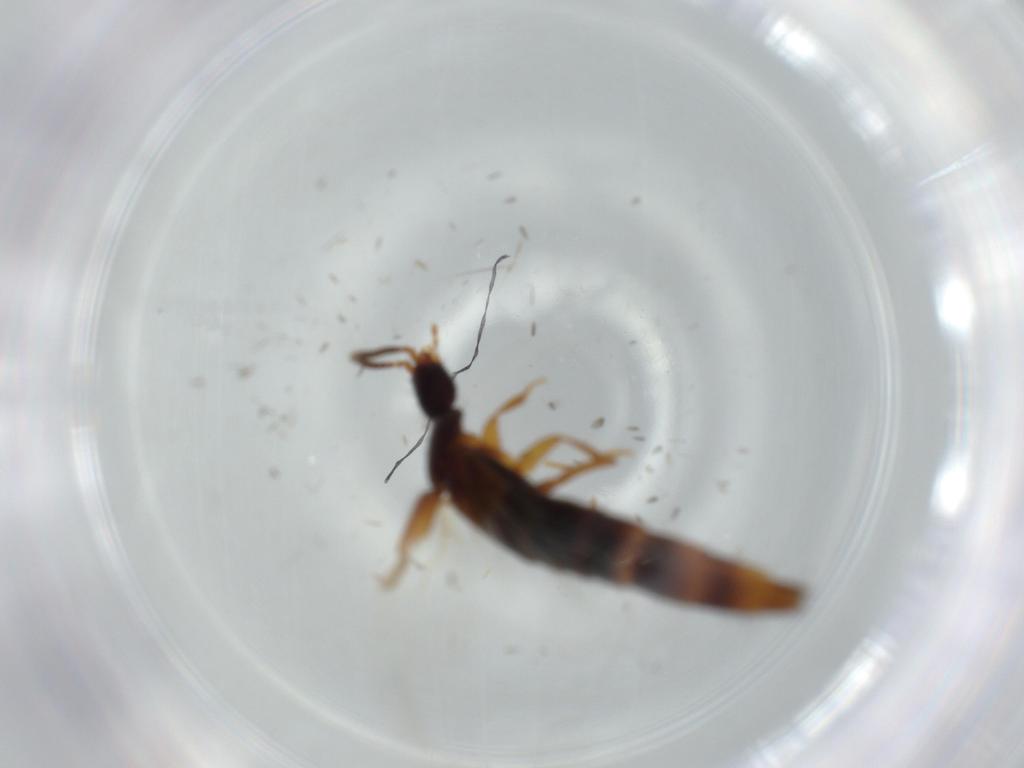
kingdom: Animalia
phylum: Arthropoda
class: Insecta
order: Coleoptera
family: Staphylinidae
